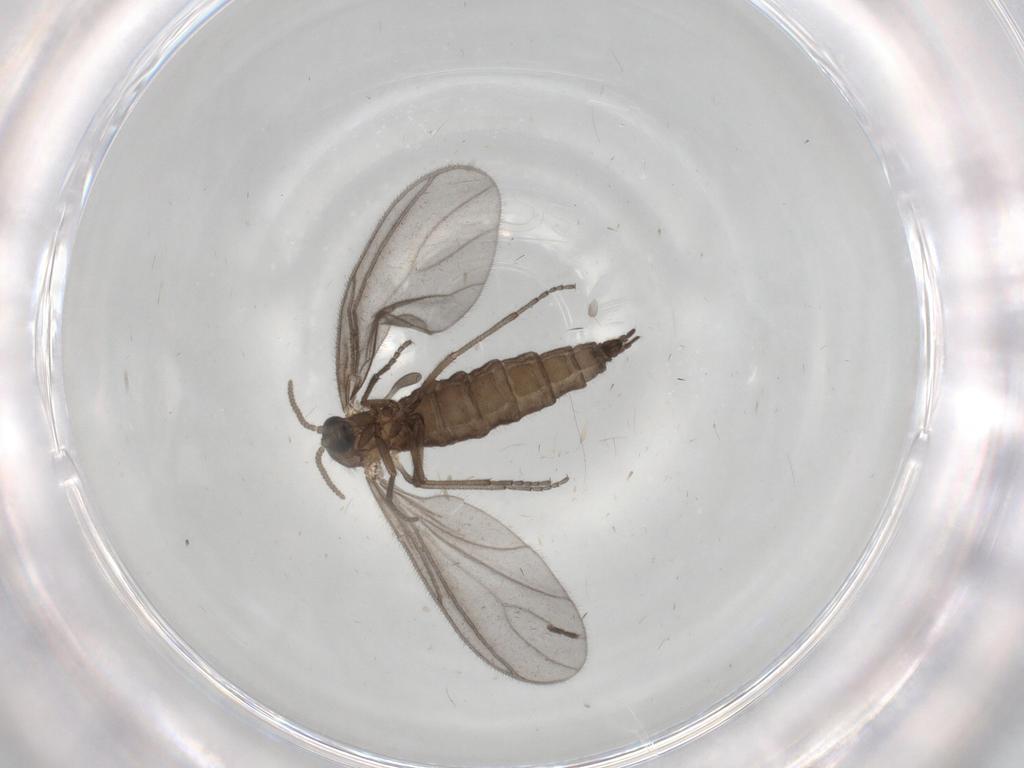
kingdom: Animalia
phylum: Arthropoda
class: Insecta
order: Diptera
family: Sciaridae
